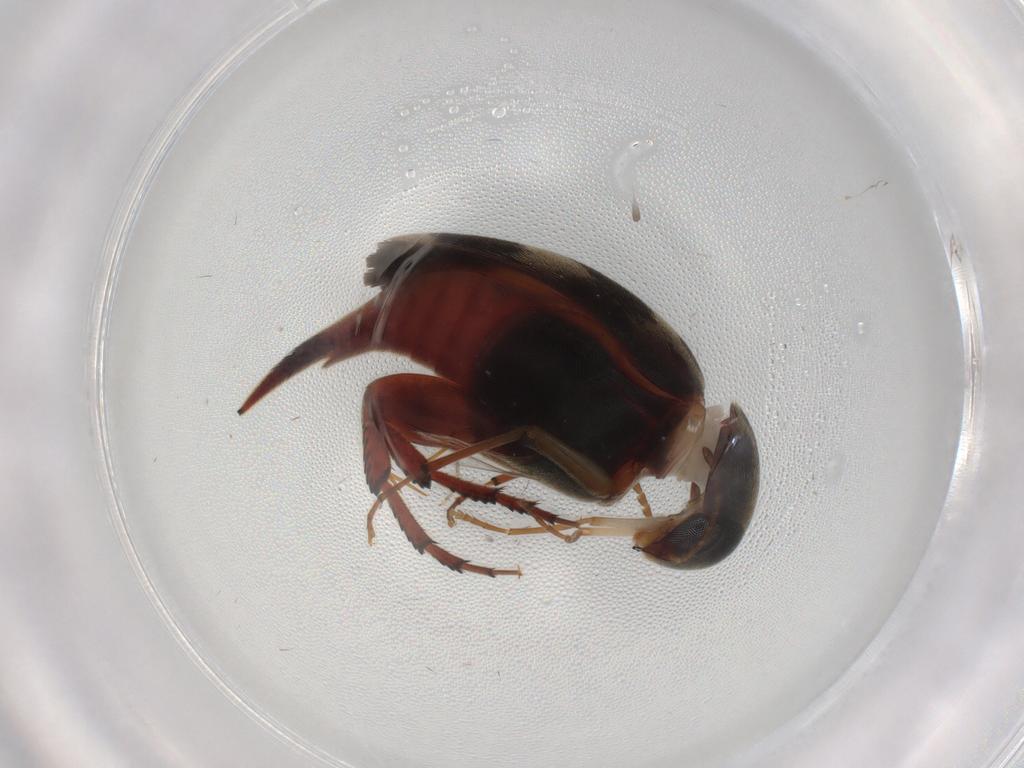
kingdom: Animalia
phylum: Arthropoda
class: Insecta
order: Coleoptera
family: Mordellidae
